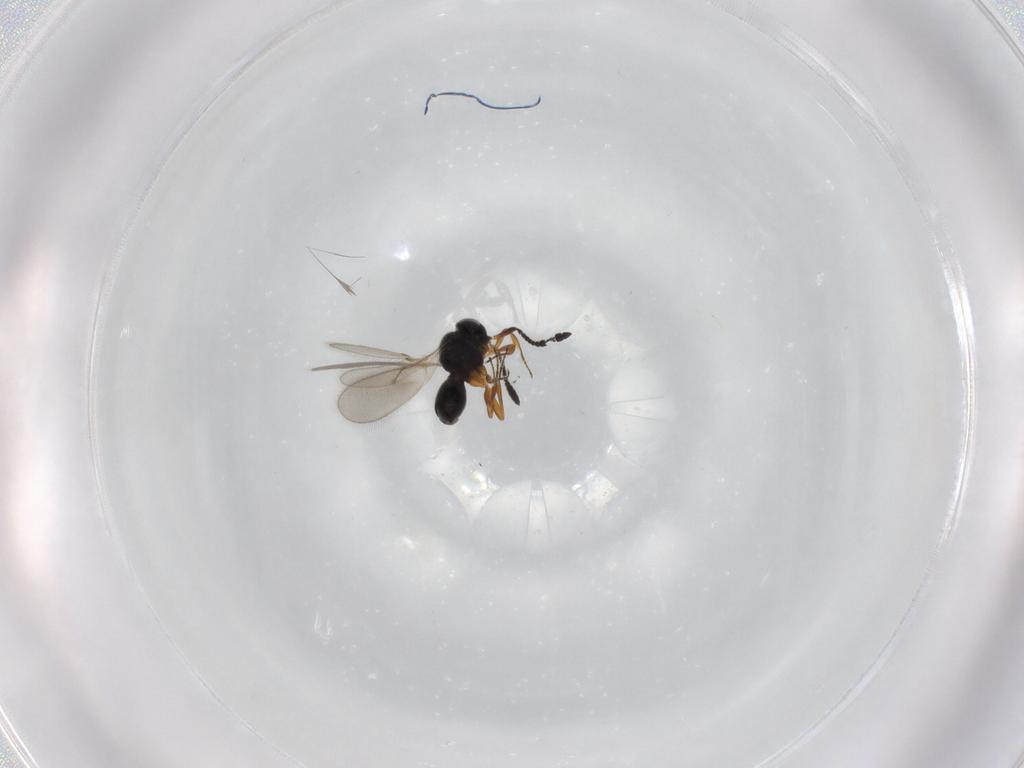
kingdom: Animalia
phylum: Arthropoda
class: Insecta
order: Hymenoptera
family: Scelionidae
